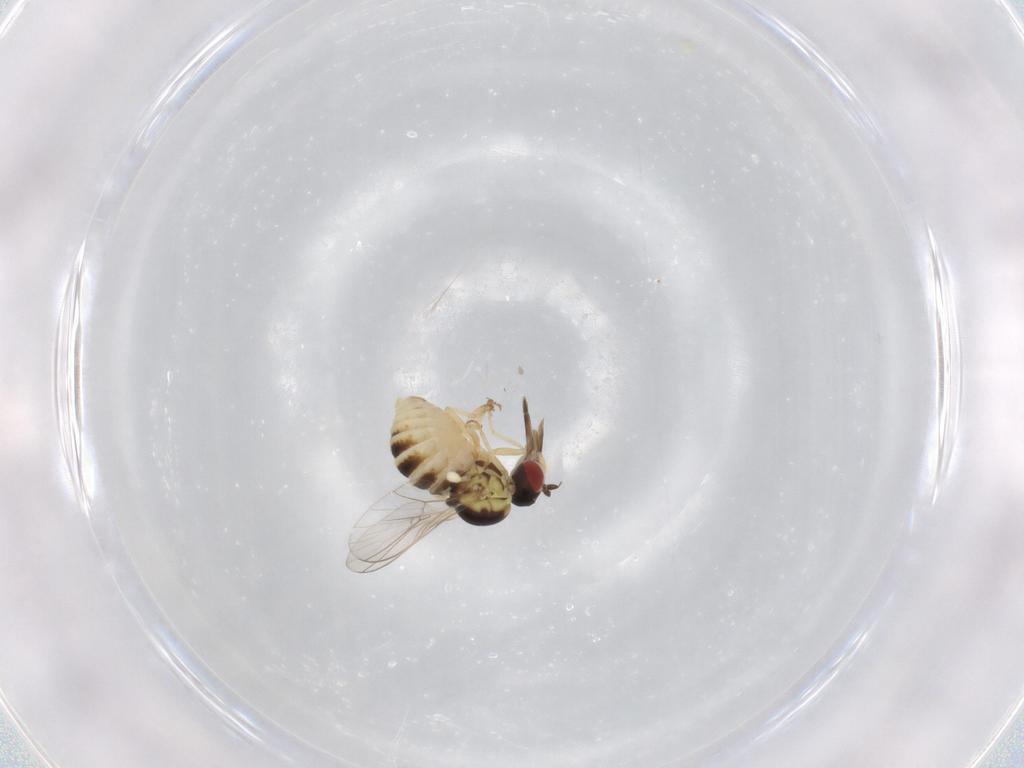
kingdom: Animalia
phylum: Arthropoda
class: Insecta
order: Diptera
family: Bombyliidae
